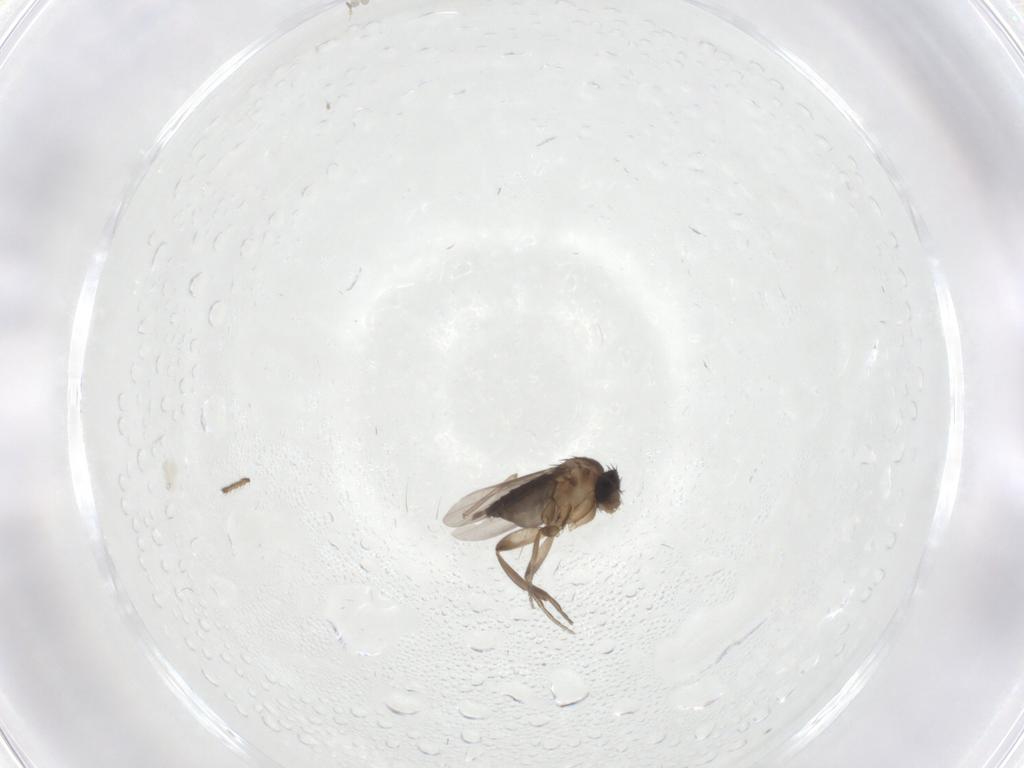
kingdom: Animalia
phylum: Arthropoda
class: Insecta
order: Diptera
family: Phoridae
